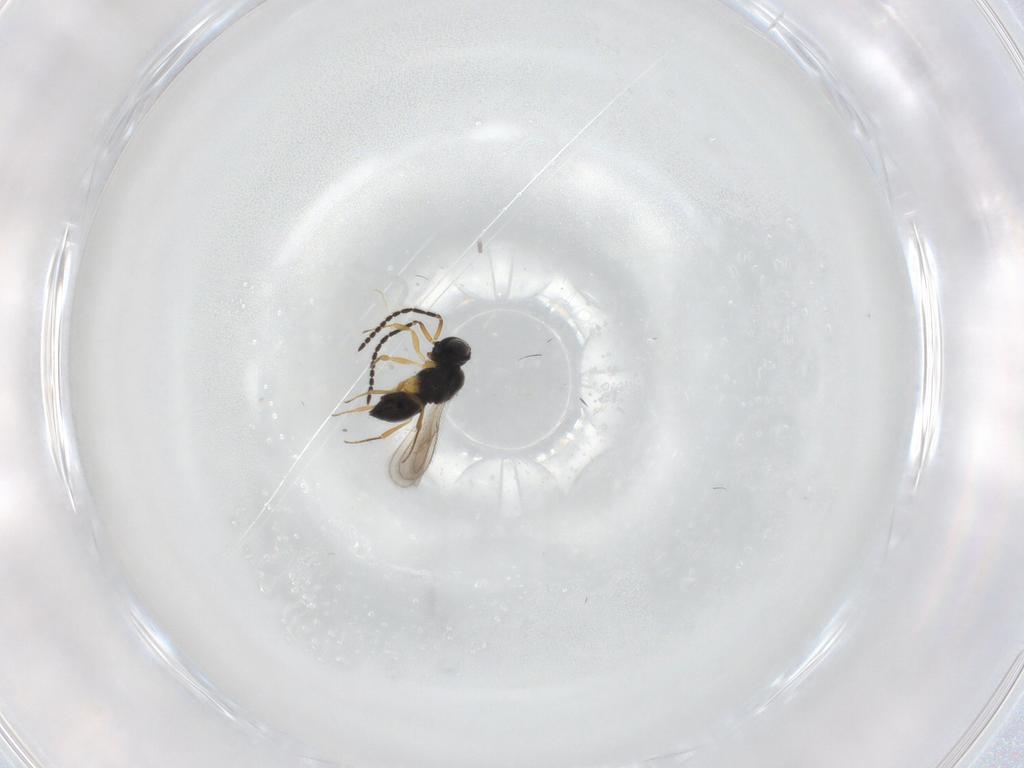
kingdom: Animalia
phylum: Arthropoda
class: Insecta
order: Hymenoptera
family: Scelionidae
